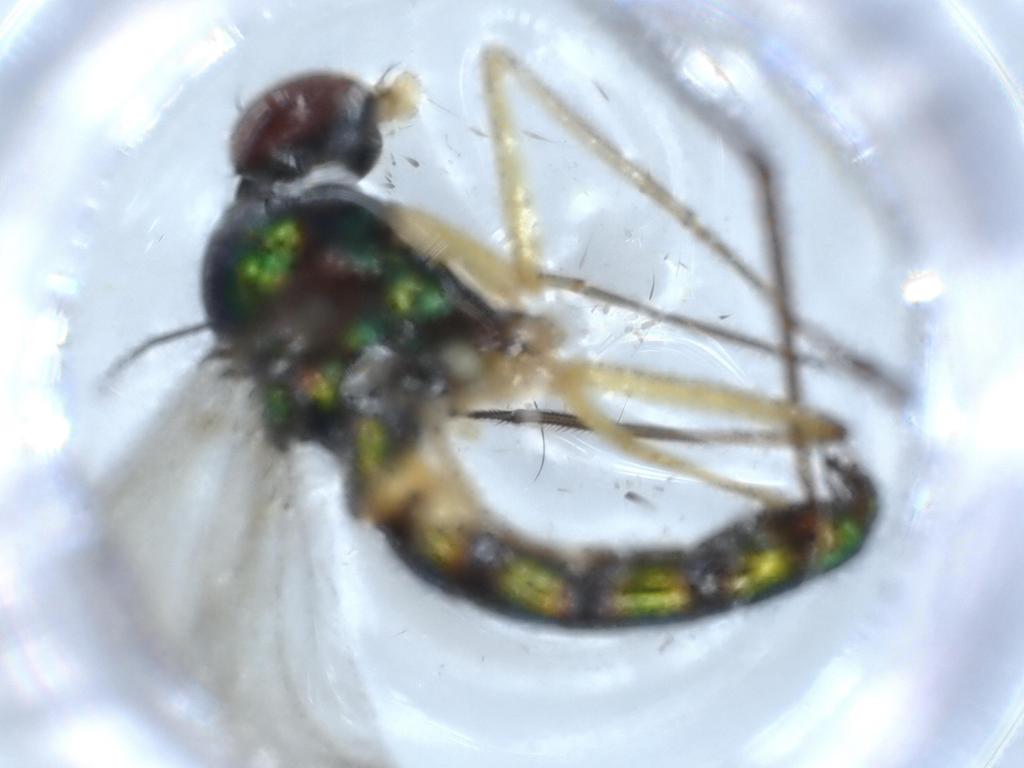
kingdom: Animalia
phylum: Arthropoda
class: Insecta
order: Diptera
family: Dolichopodidae
